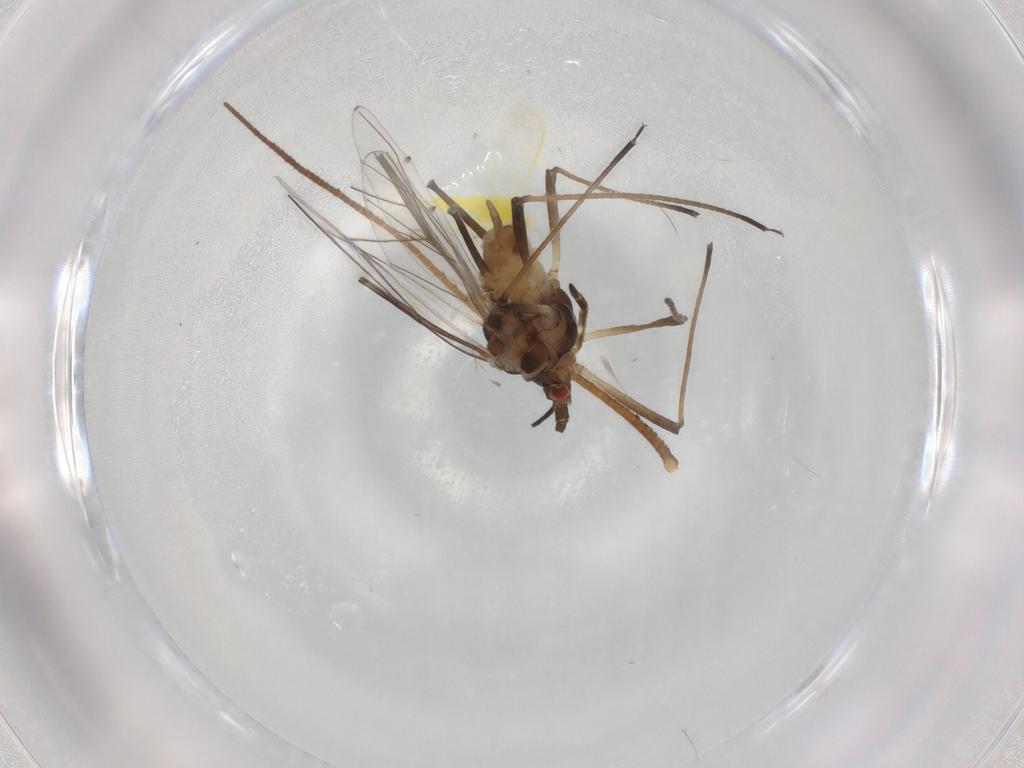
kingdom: Animalia
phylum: Arthropoda
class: Insecta
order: Hemiptera
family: Aphididae
